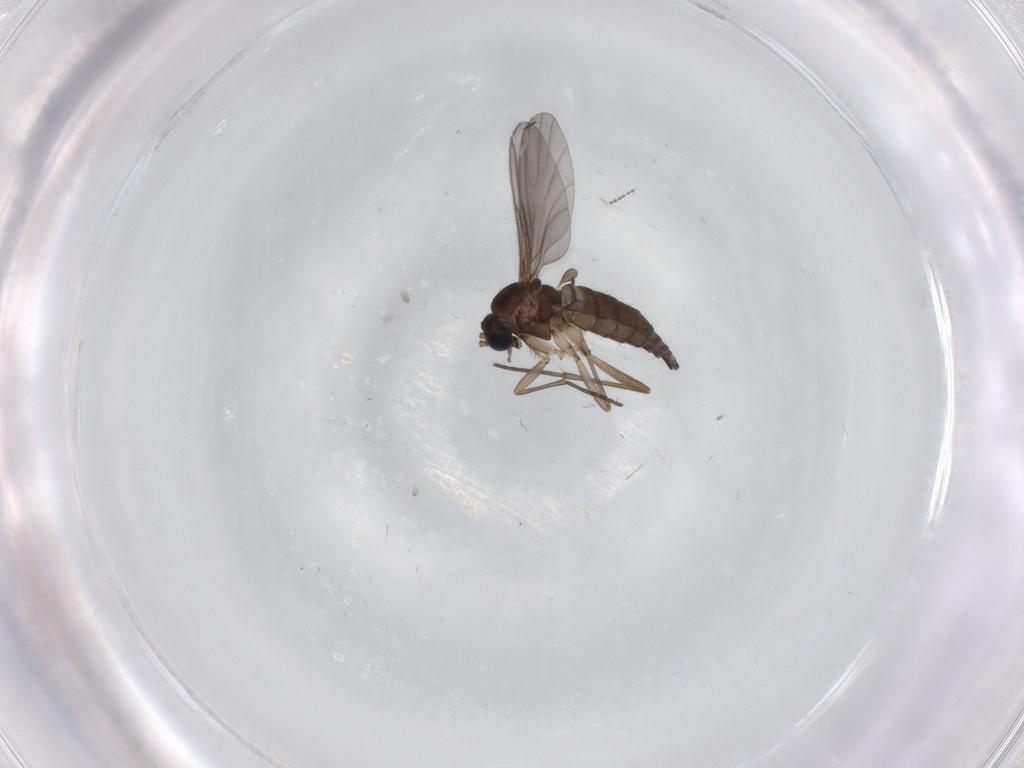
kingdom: Animalia
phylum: Arthropoda
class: Insecta
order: Diptera
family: Sciaridae
